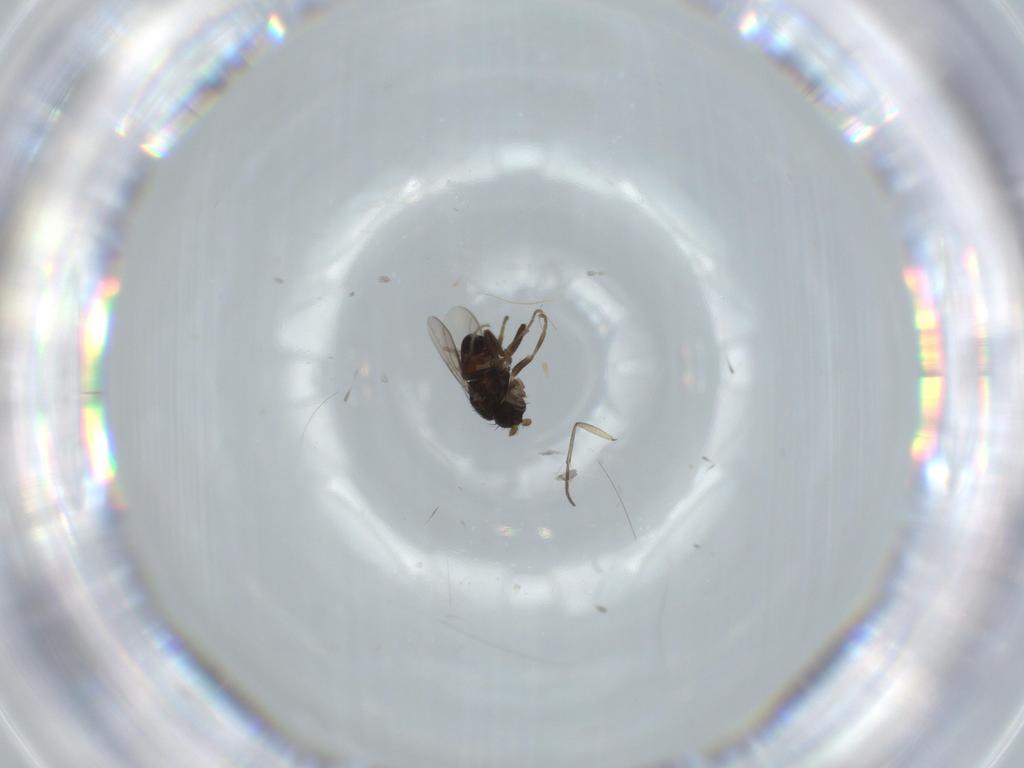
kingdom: Animalia
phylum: Arthropoda
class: Insecta
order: Diptera
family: Sphaeroceridae
